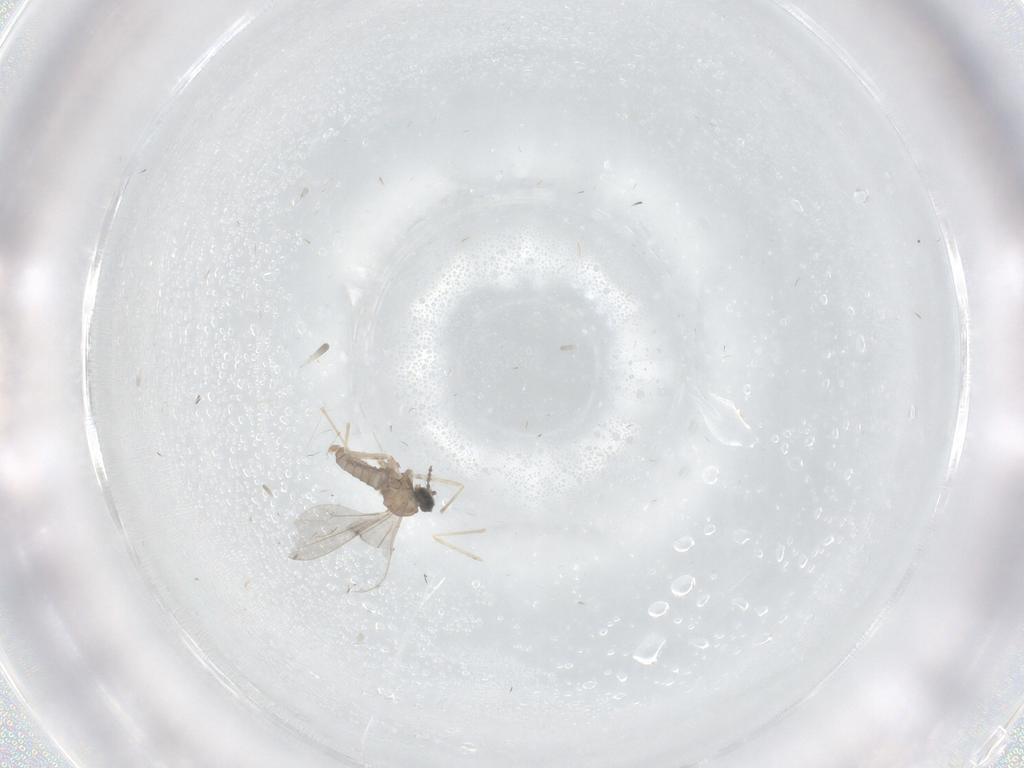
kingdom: Animalia
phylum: Arthropoda
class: Insecta
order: Diptera
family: Cecidomyiidae
